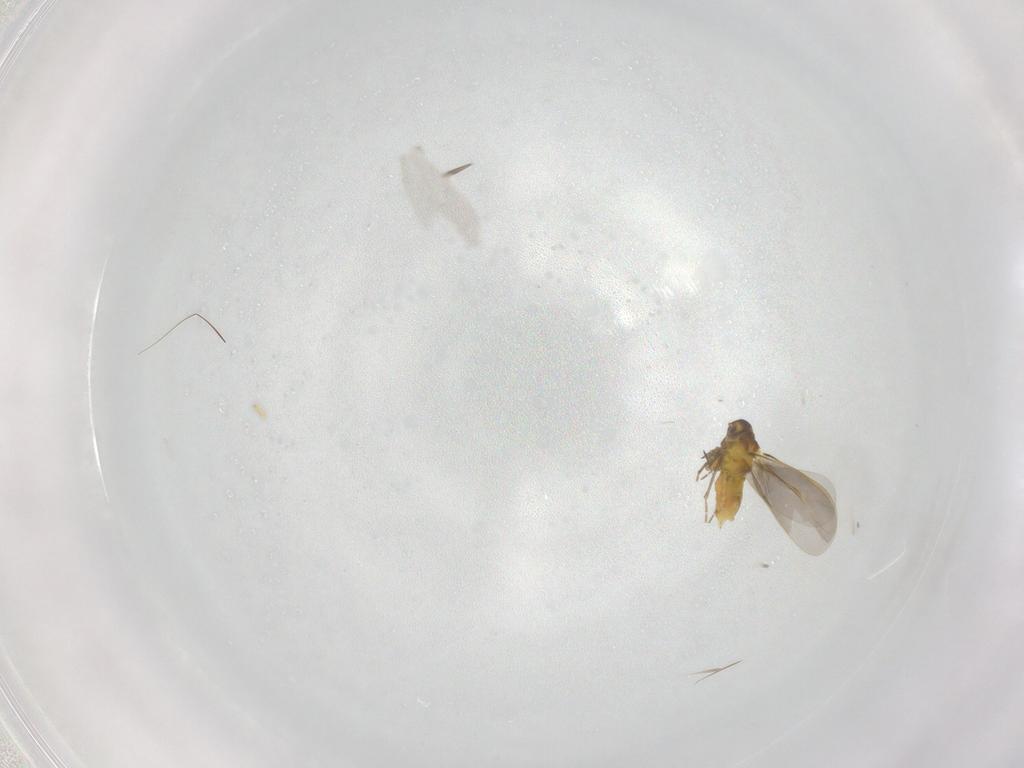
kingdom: Animalia
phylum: Arthropoda
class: Insecta
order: Hemiptera
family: Aleyrodidae
